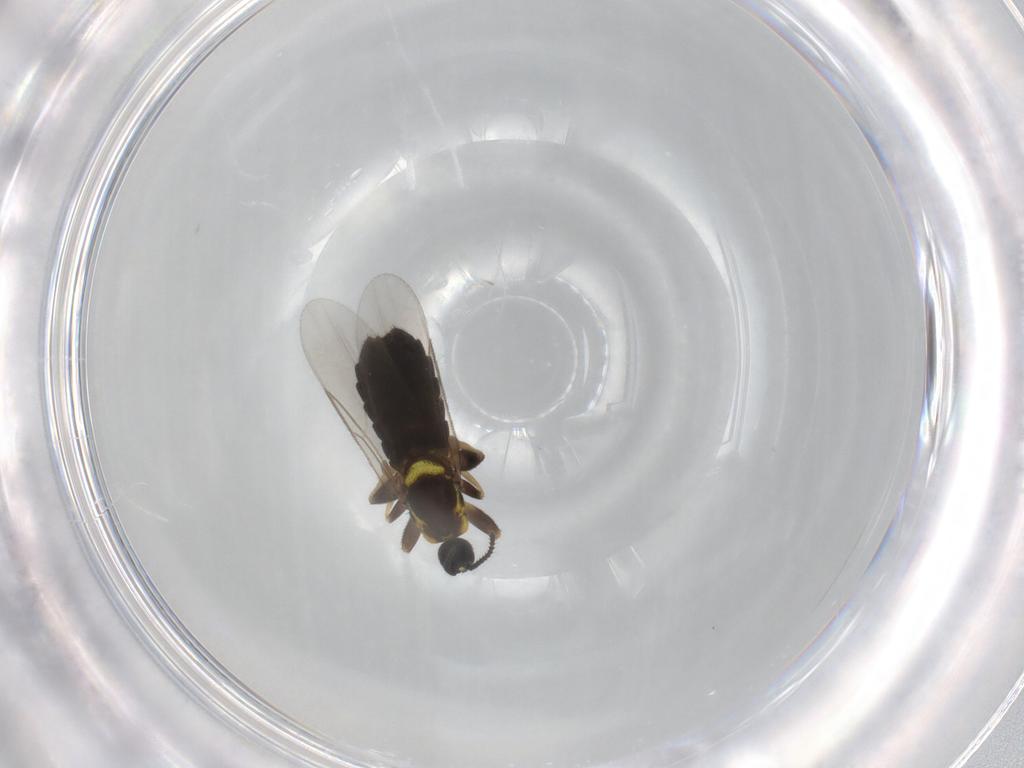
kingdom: Animalia
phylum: Arthropoda
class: Insecta
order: Diptera
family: Scatopsidae
